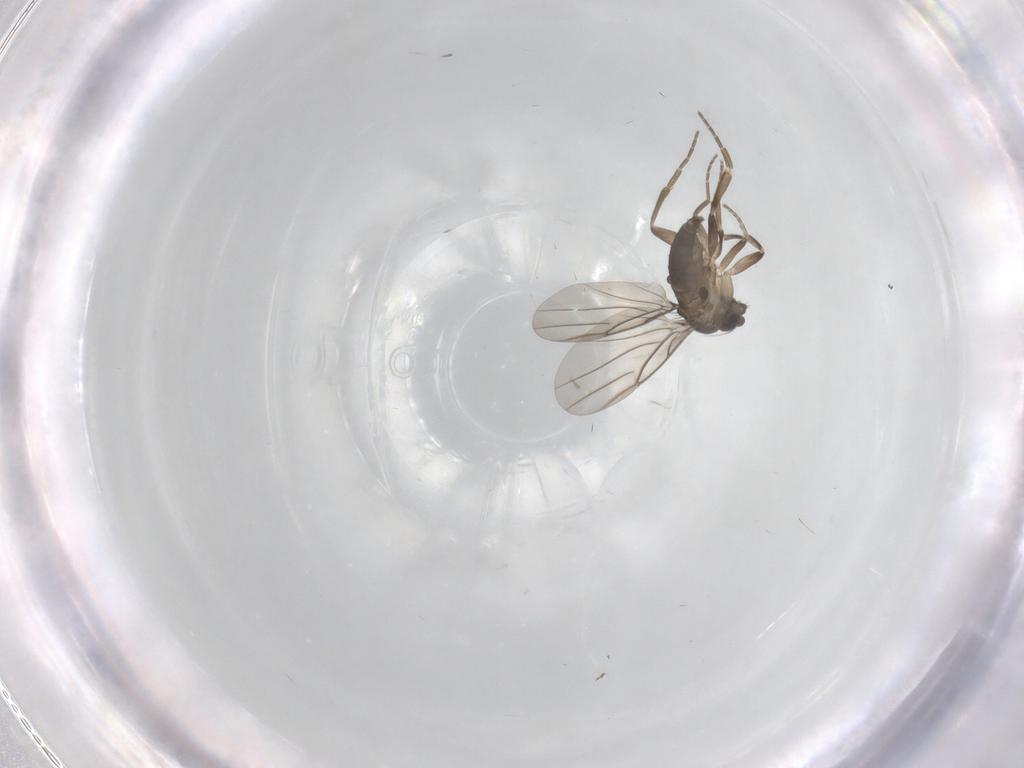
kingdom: Animalia
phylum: Arthropoda
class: Insecta
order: Diptera
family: Phoridae
